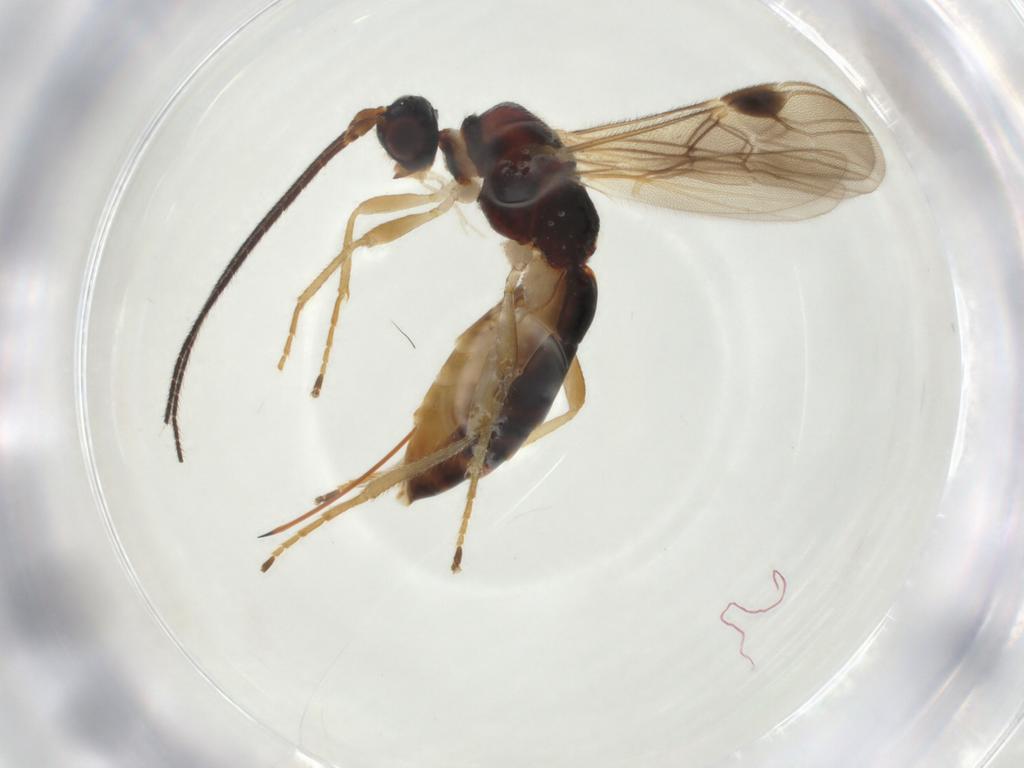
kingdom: Animalia
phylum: Arthropoda
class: Insecta
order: Hymenoptera
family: Braconidae
